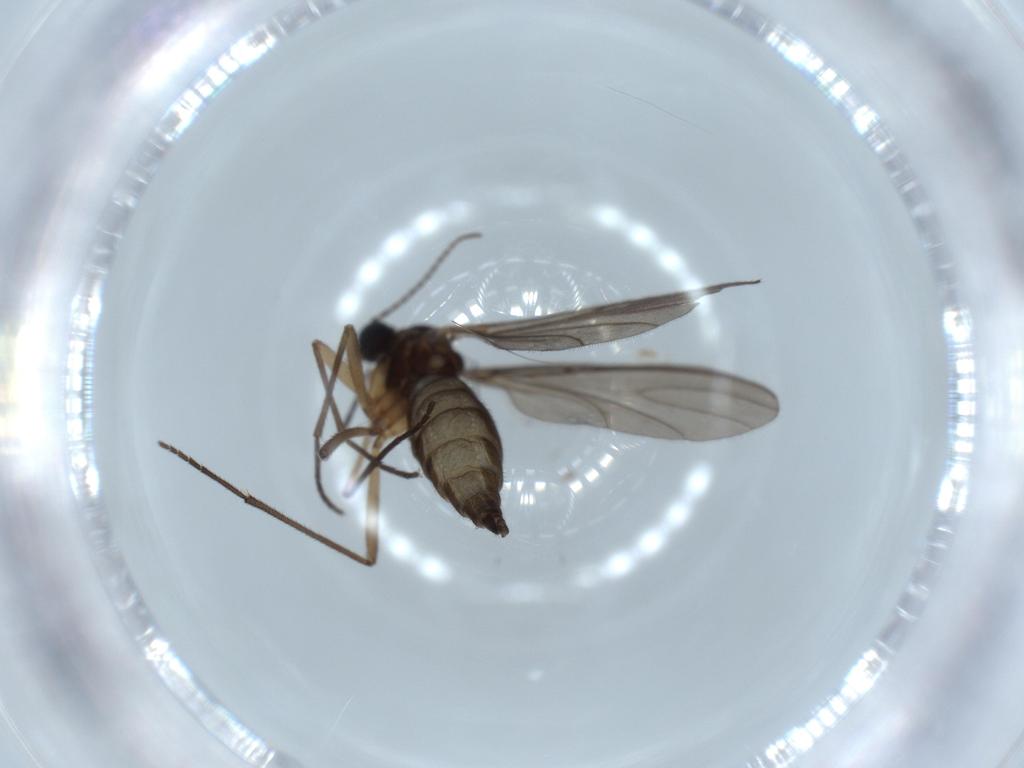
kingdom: Animalia
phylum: Arthropoda
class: Insecta
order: Diptera
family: Sciaridae
